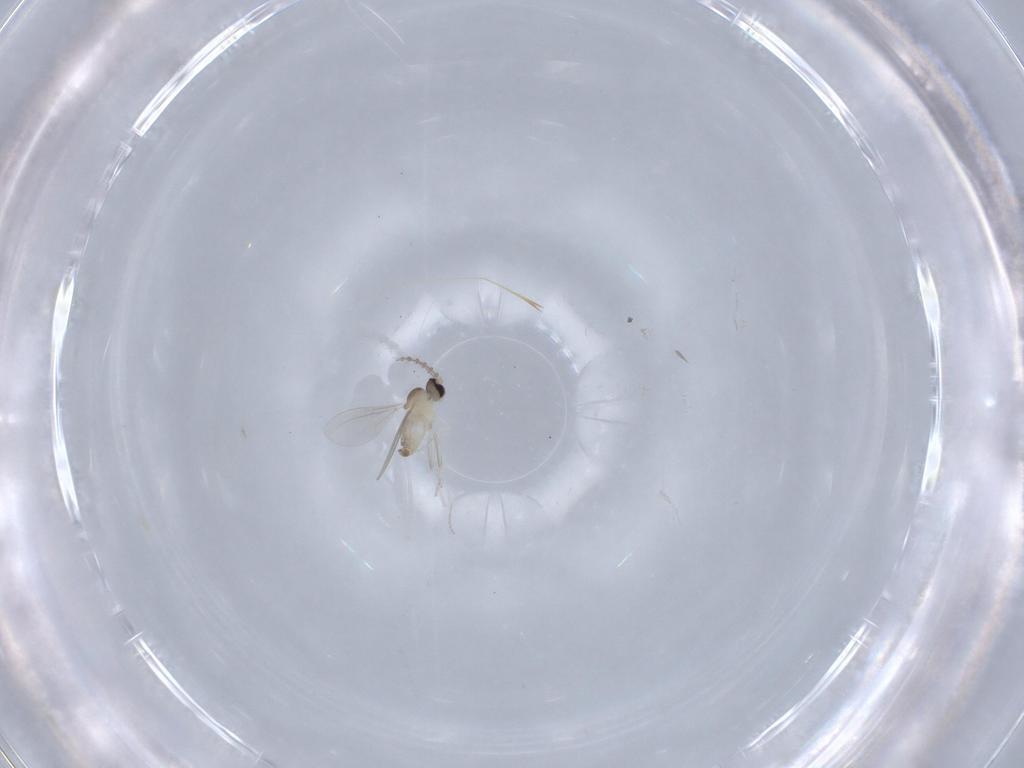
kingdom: Animalia
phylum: Arthropoda
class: Insecta
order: Diptera
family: Cecidomyiidae
